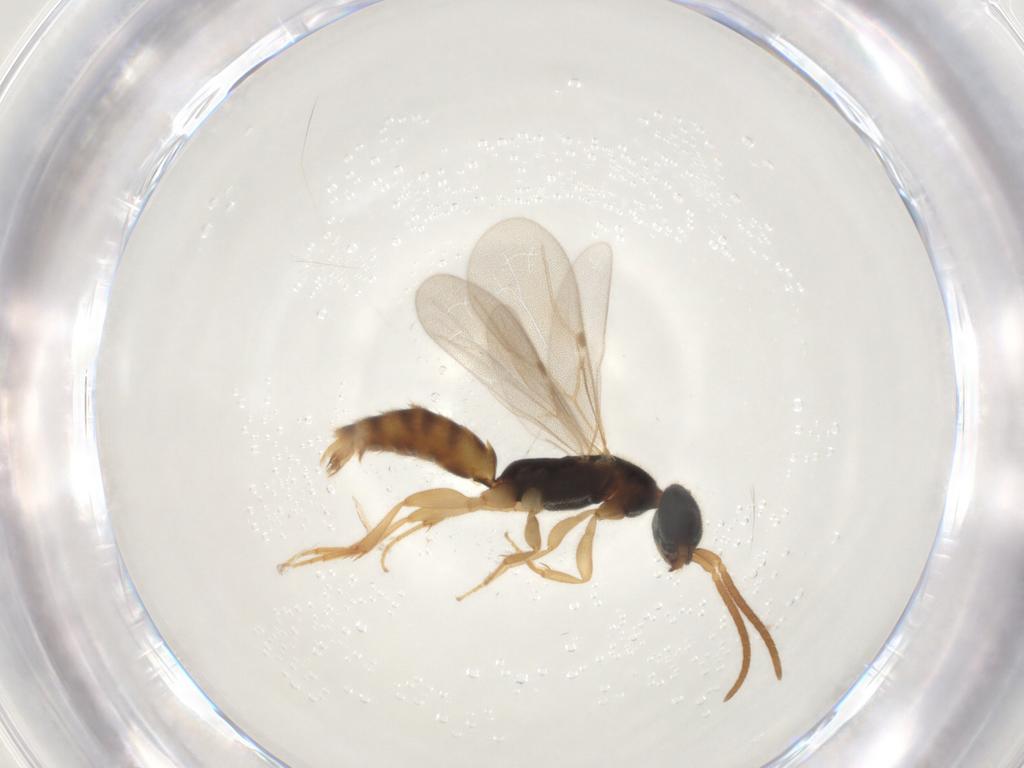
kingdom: Animalia
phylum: Arthropoda
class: Insecta
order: Hymenoptera
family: Bethylidae
